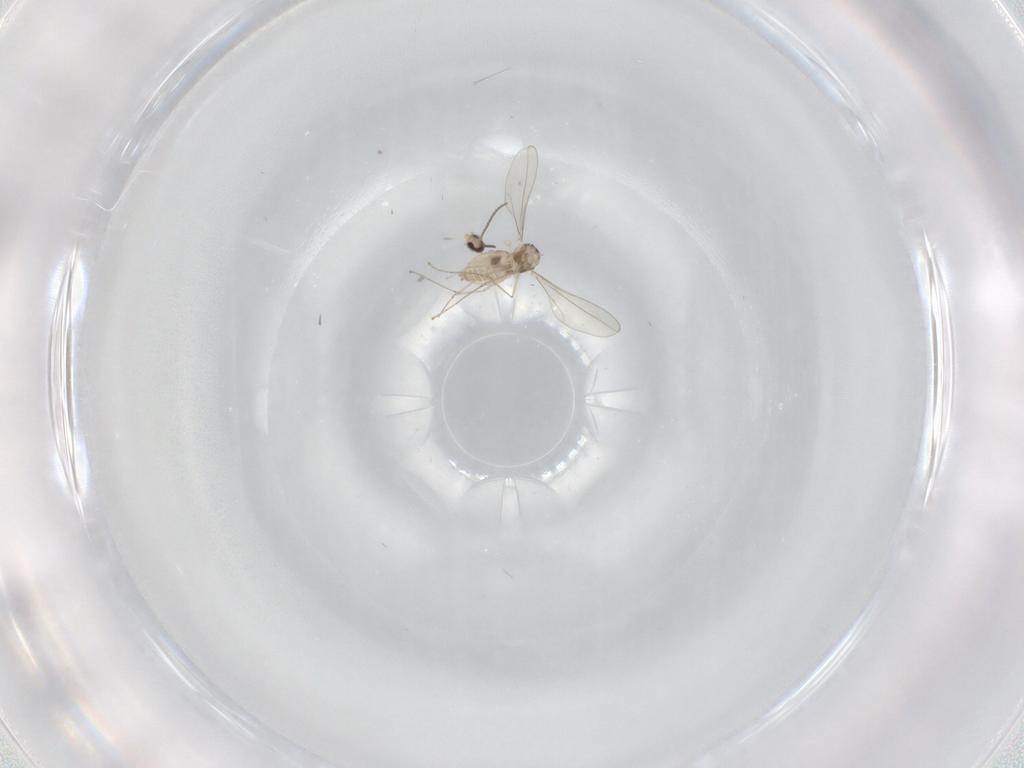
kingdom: Animalia
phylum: Arthropoda
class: Insecta
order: Diptera
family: Cecidomyiidae
